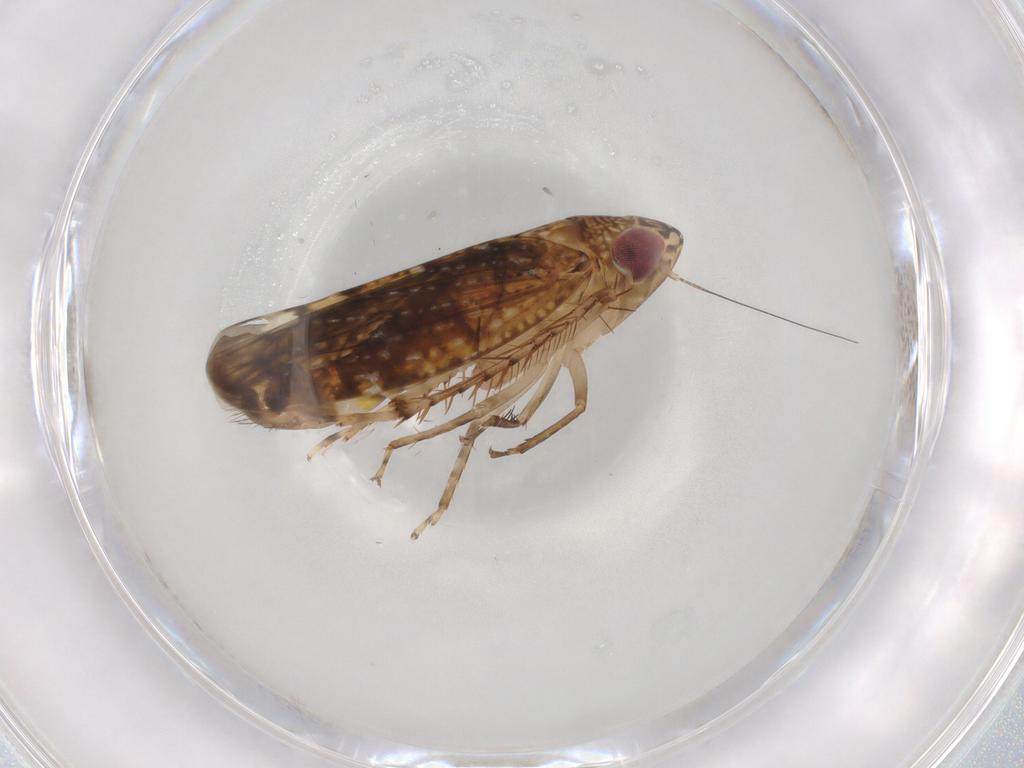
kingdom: Animalia
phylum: Arthropoda
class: Insecta
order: Hemiptera
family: Cicadellidae
